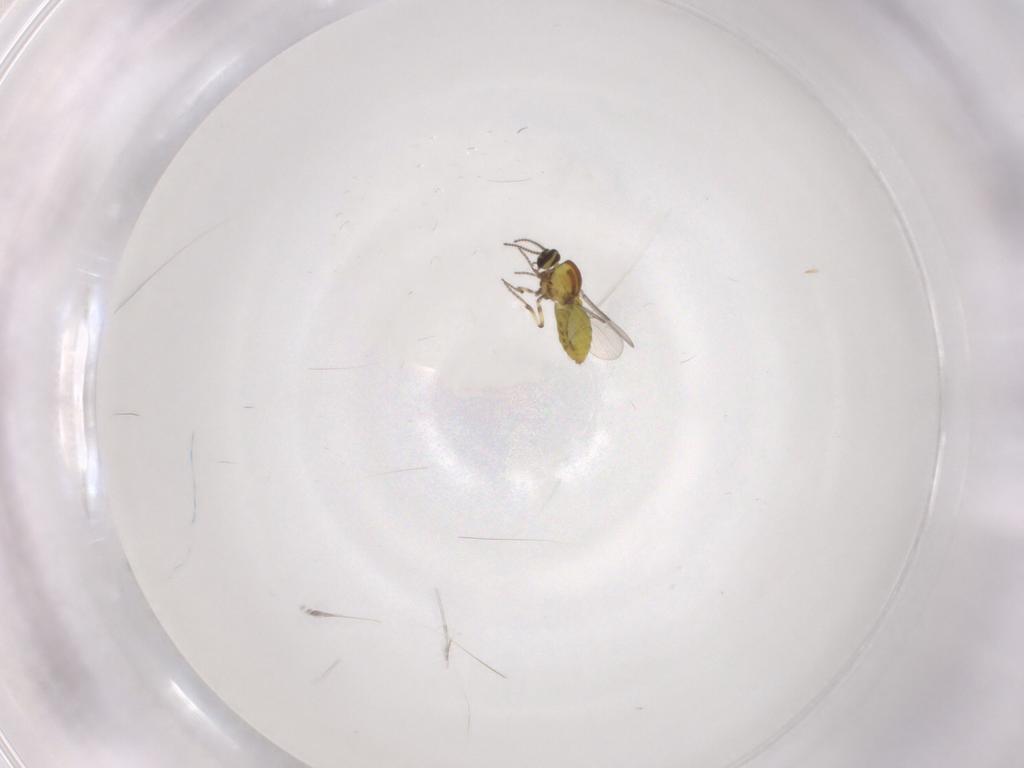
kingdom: Animalia
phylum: Arthropoda
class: Insecta
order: Diptera
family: Ceratopogonidae
